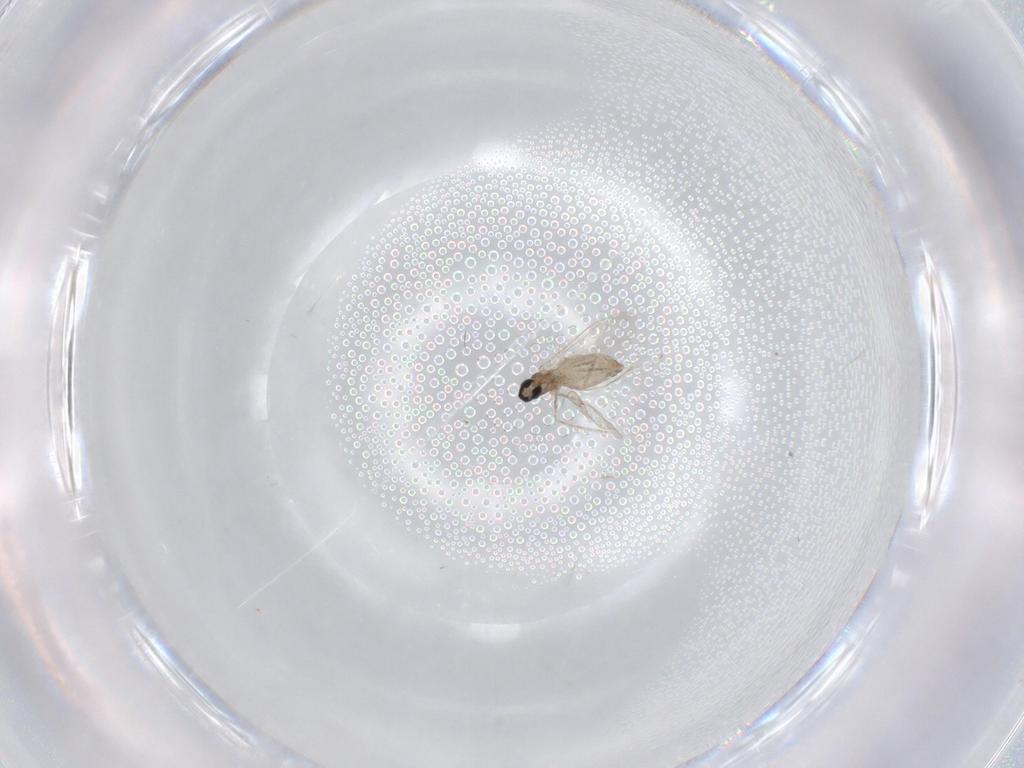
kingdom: Animalia
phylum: Arthropoda
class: Insecta
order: Diptera
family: Cecidomyiidae
